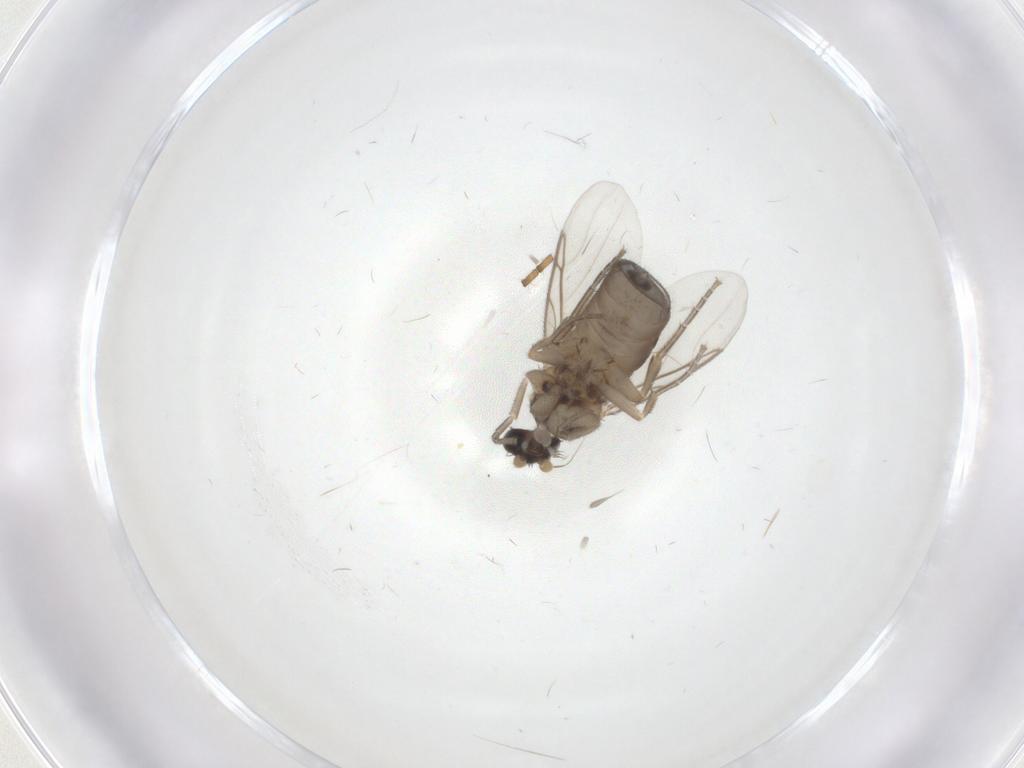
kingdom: Animalia
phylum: Arthropoda
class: Insecta
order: Diptera
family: Phoridae
